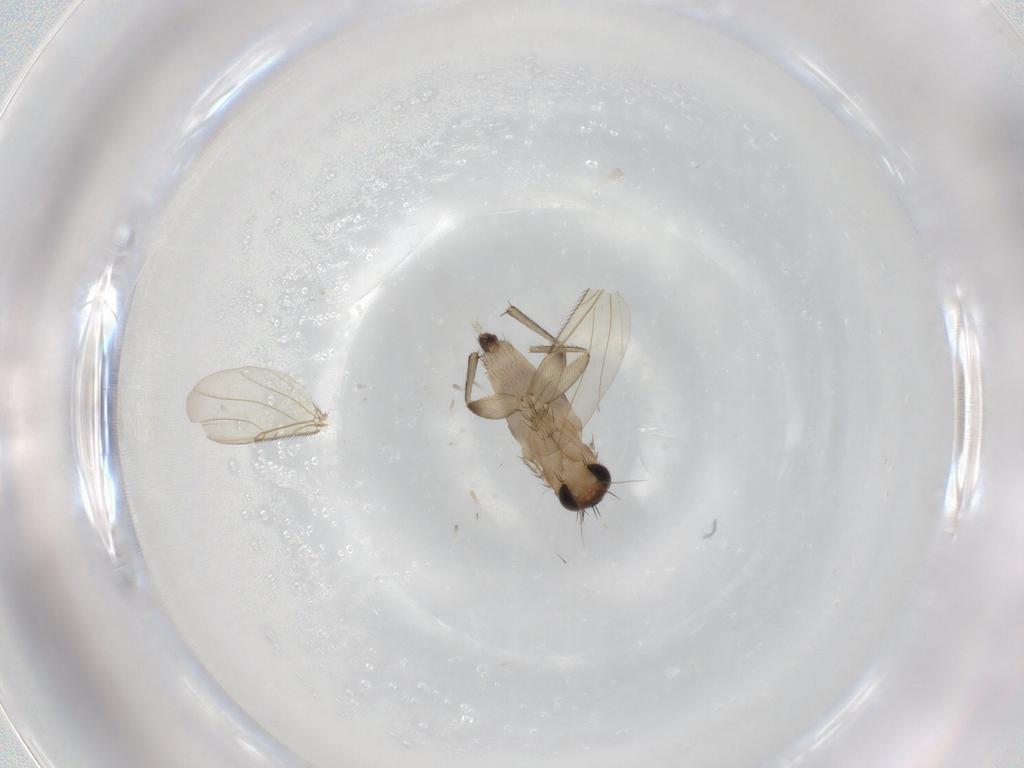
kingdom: Animalia
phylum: Arthropoda
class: Insecta
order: Diptera
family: Phoridae
